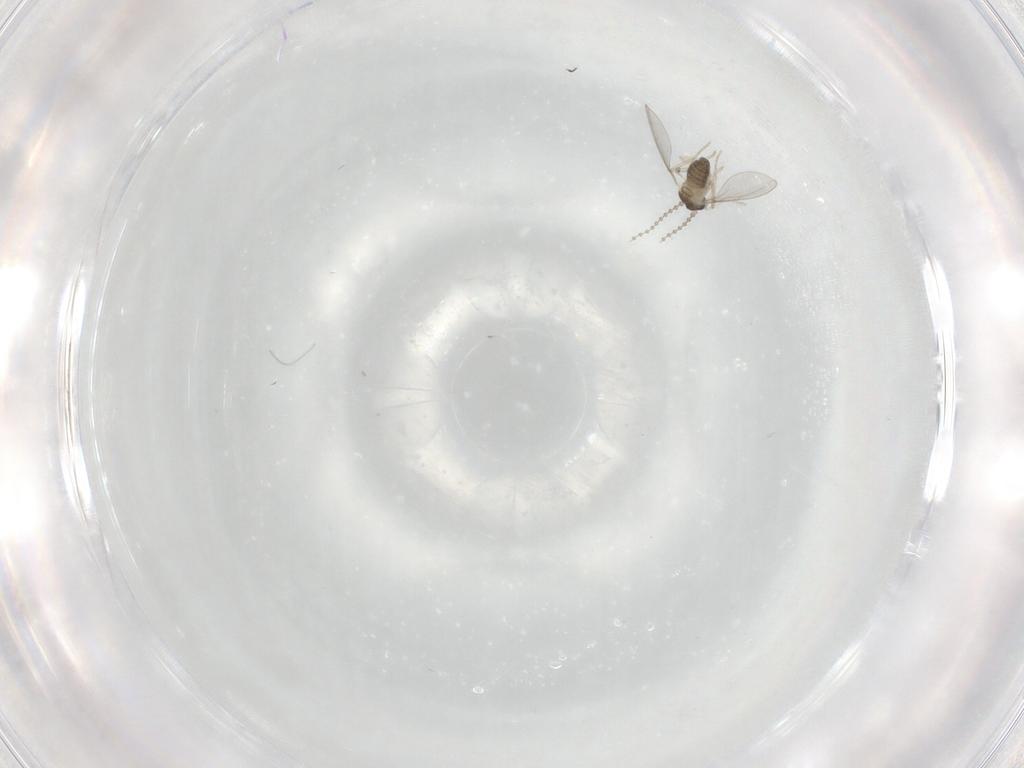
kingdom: Animalia
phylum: Arthropoda
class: Insecta
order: Diptera
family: Cecidomyiidae
